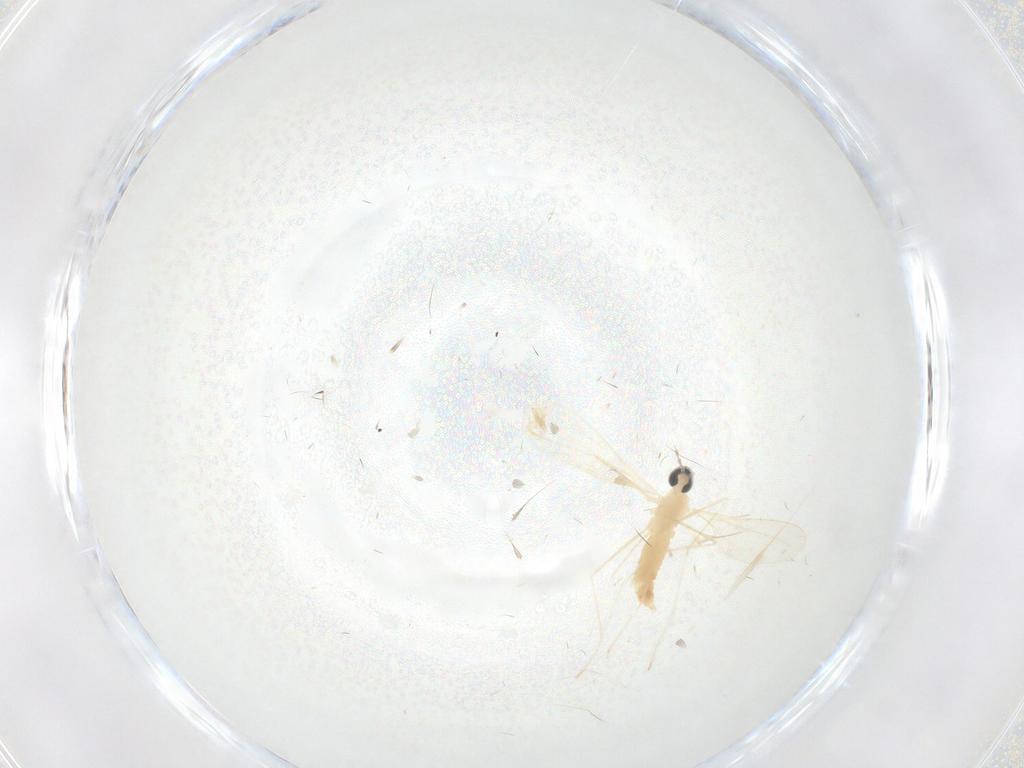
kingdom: Animalia
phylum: Arthropoda
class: Insecta
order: Diptera
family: Cecidomyiidae
